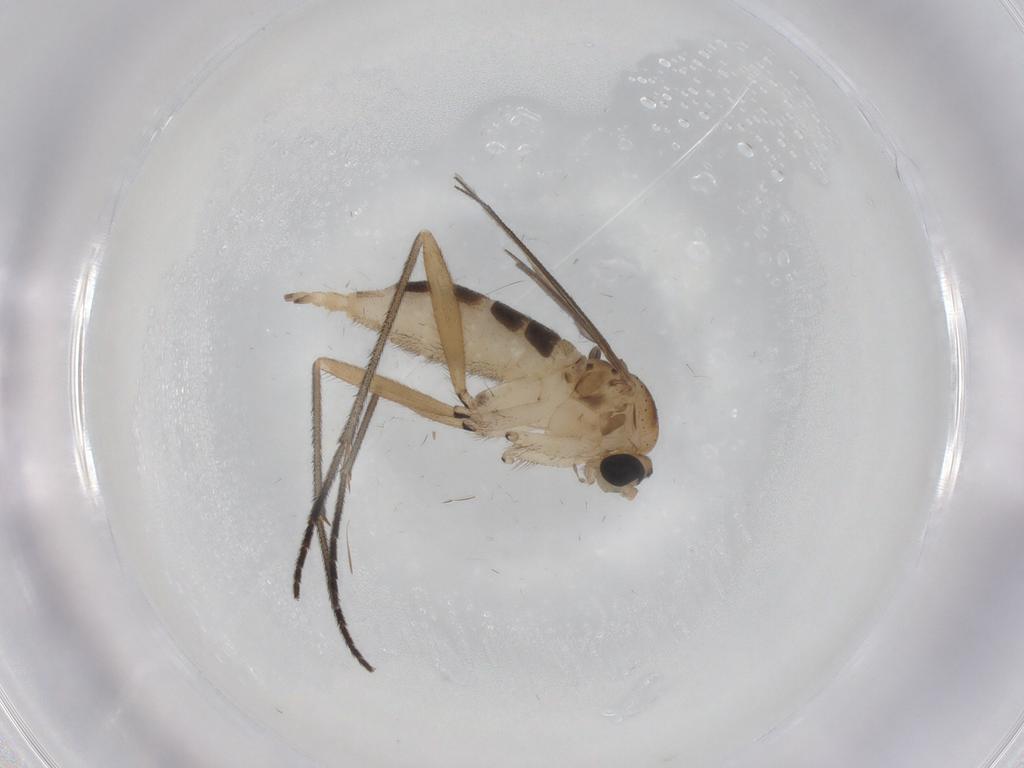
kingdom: Animalia
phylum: Arthropoda
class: Insecta
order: Diptera
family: Sciaridae
